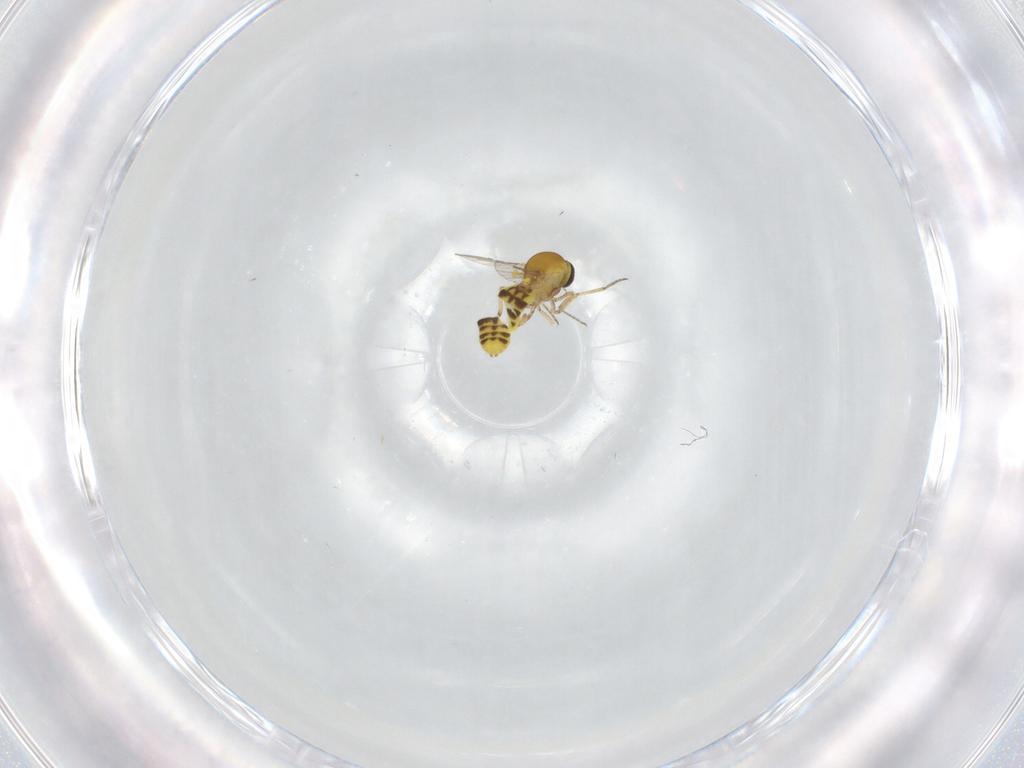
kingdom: Animalia
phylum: Arthropoda
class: Insecta
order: Diptera
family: Ceratopogonidae
